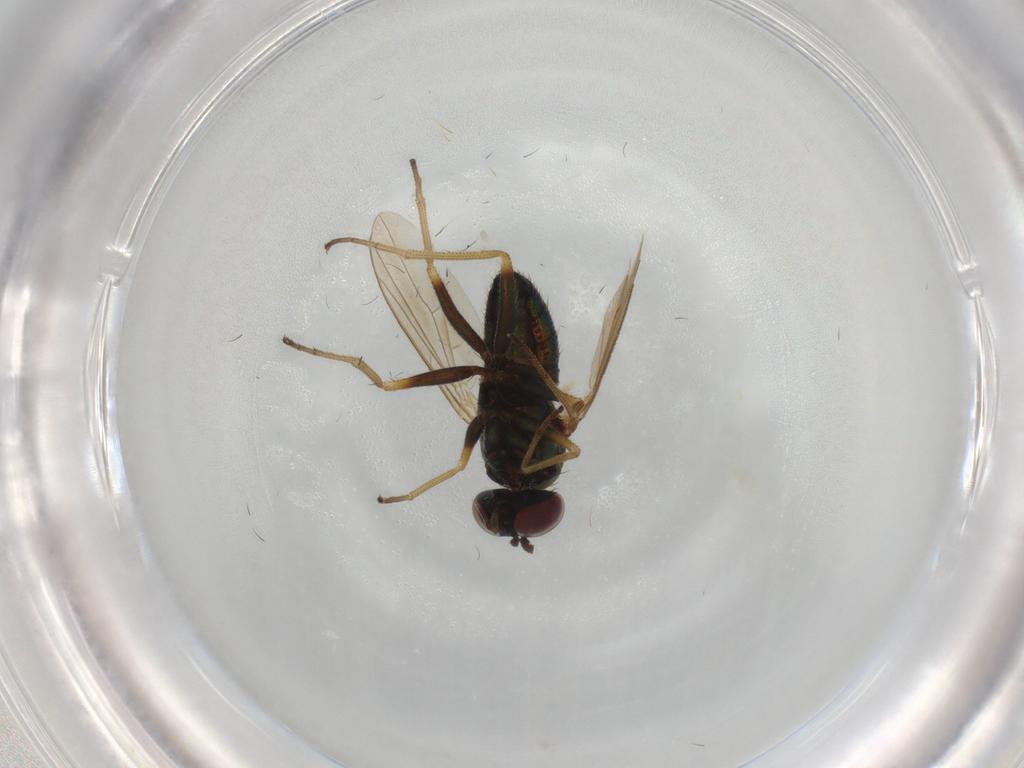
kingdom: Animalia
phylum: Arthropoda
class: Insecta
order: Diptera
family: Dolichopodidae
